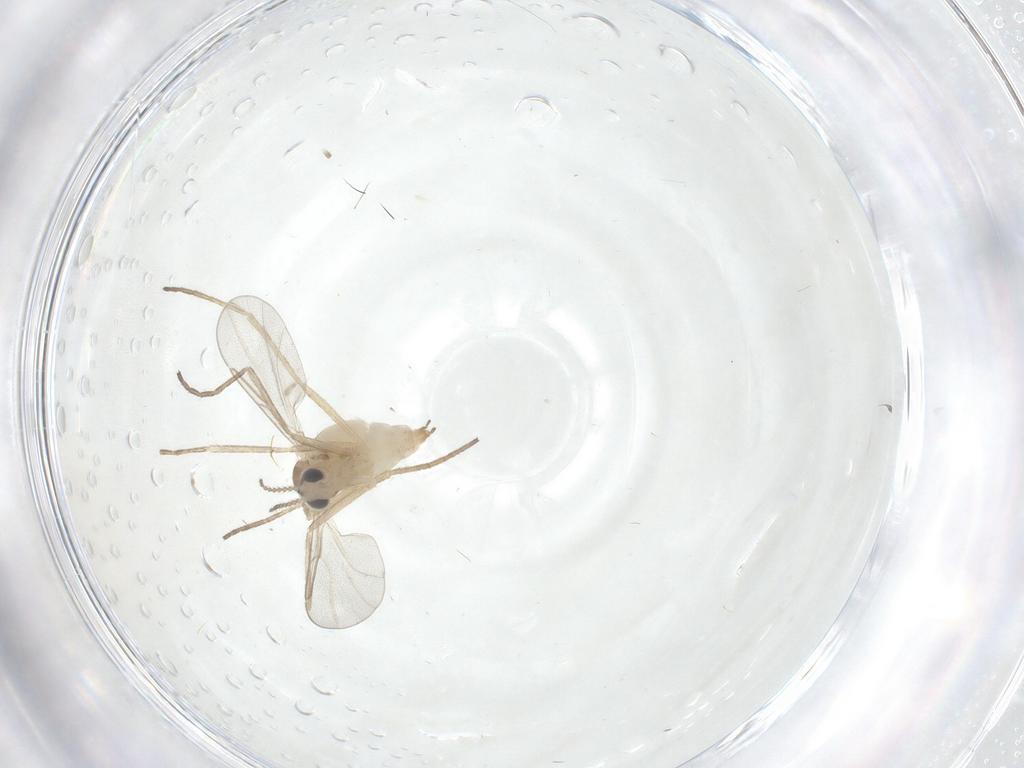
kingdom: Animalia
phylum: Arthropoda
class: Insecta
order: Diptera
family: Cecidomyiidae
